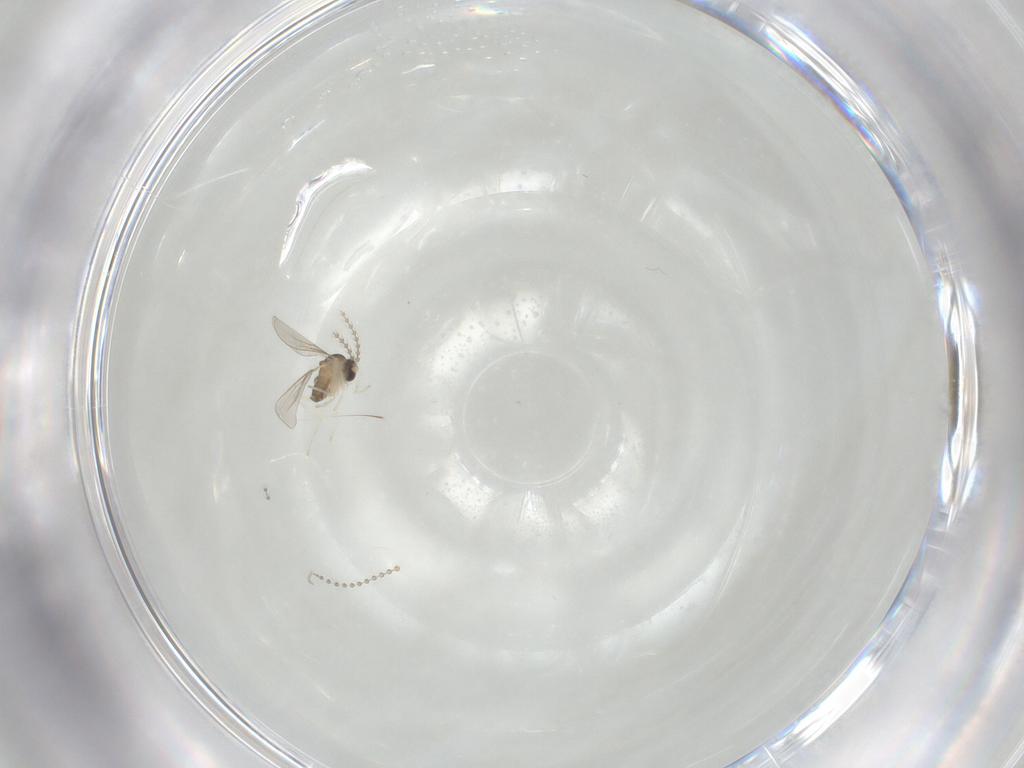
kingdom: Animalia
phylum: Arthropoda
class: Insecta
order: Diptera
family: Cecidomyiidae
